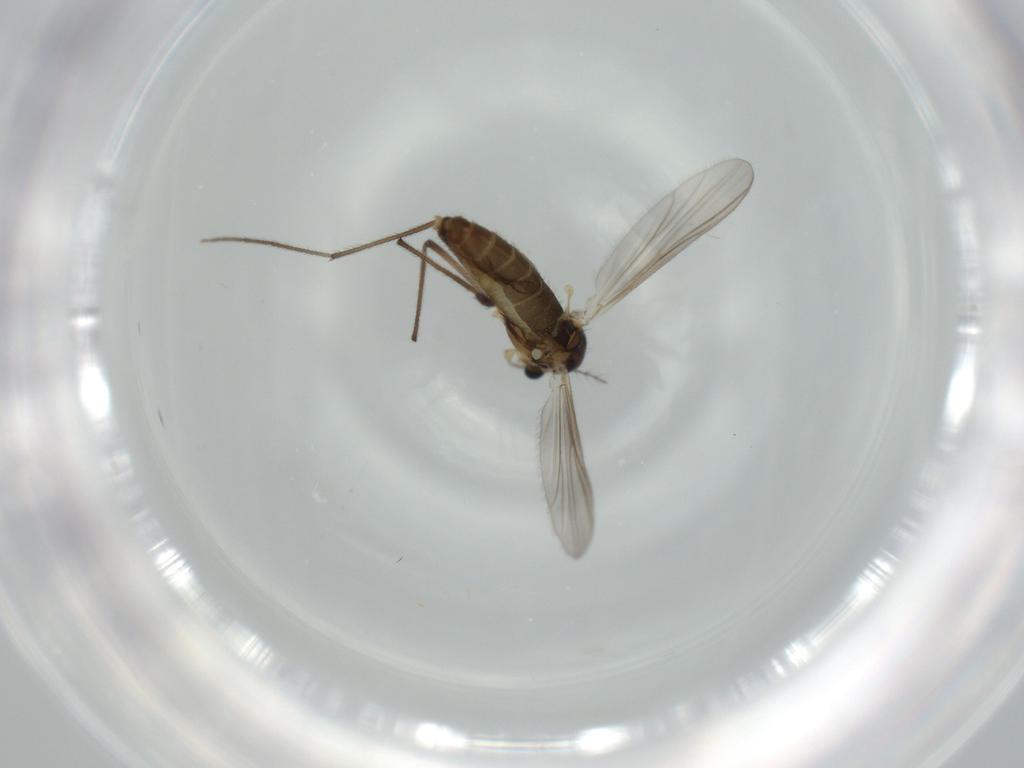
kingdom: Animalia
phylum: Arthropoda
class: Insecta
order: Diptera
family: Chironomidae
